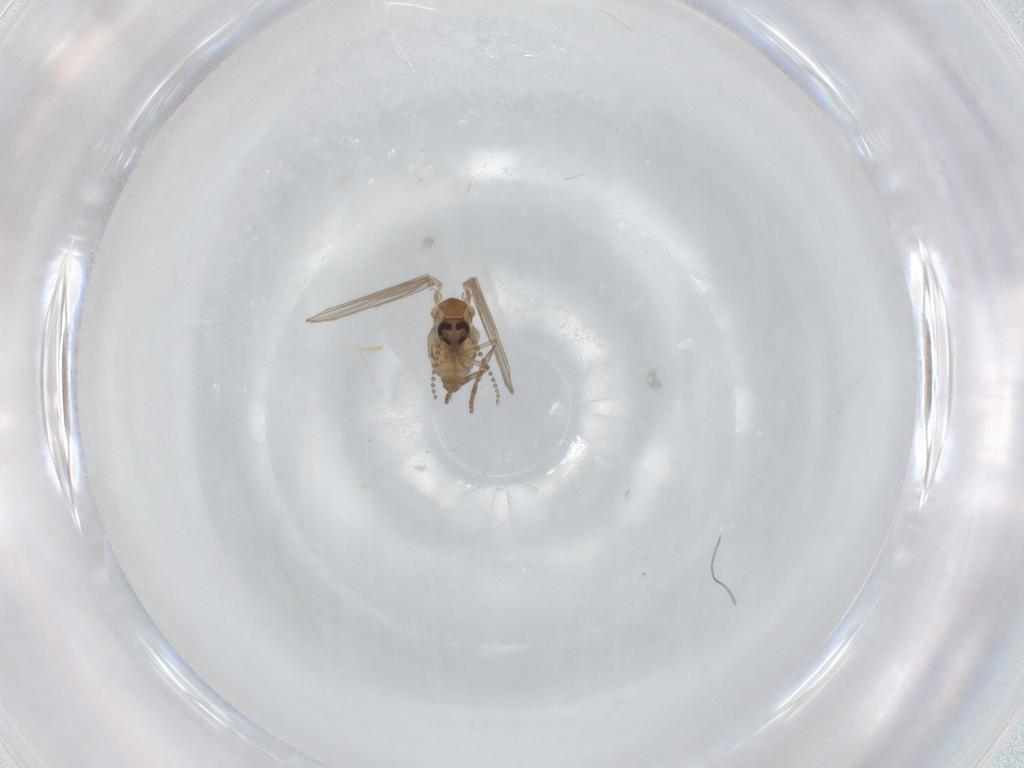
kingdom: Animalia
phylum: Arthropoda
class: Insecta
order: Diptera
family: Psychodidae
